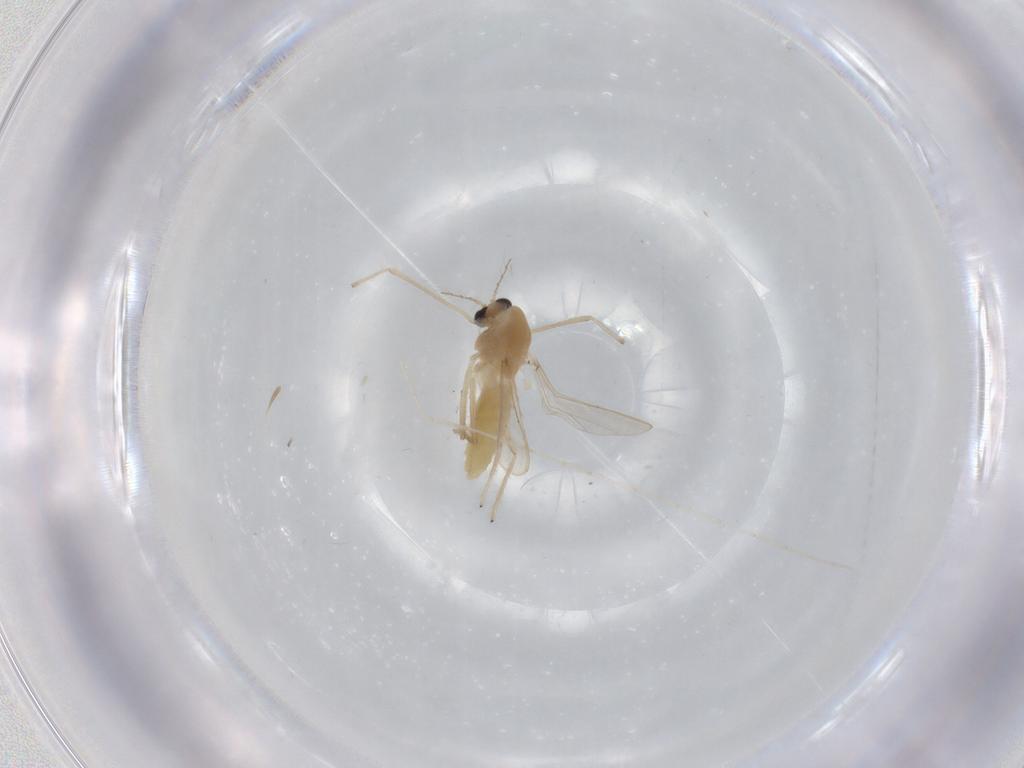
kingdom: Animalia
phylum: Arthropoda
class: Insecta
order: Diptera
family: Chironomidae
